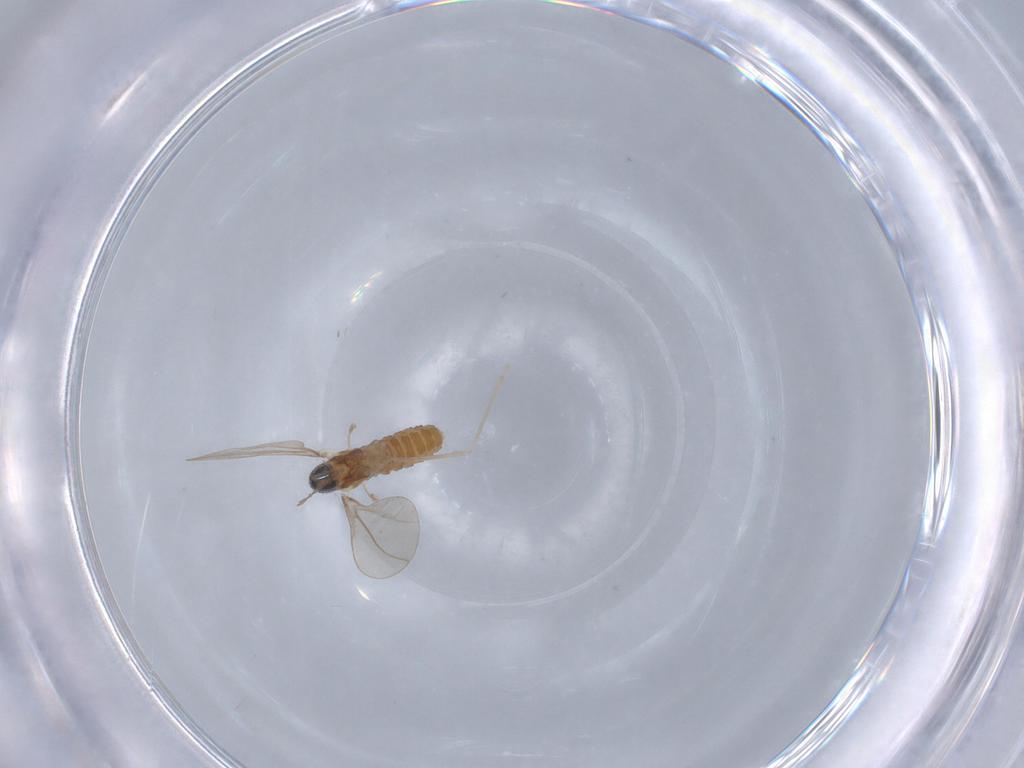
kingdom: Animalia
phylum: Arthropoda
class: Insecta
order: Diptera
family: Cecidomyiidae
